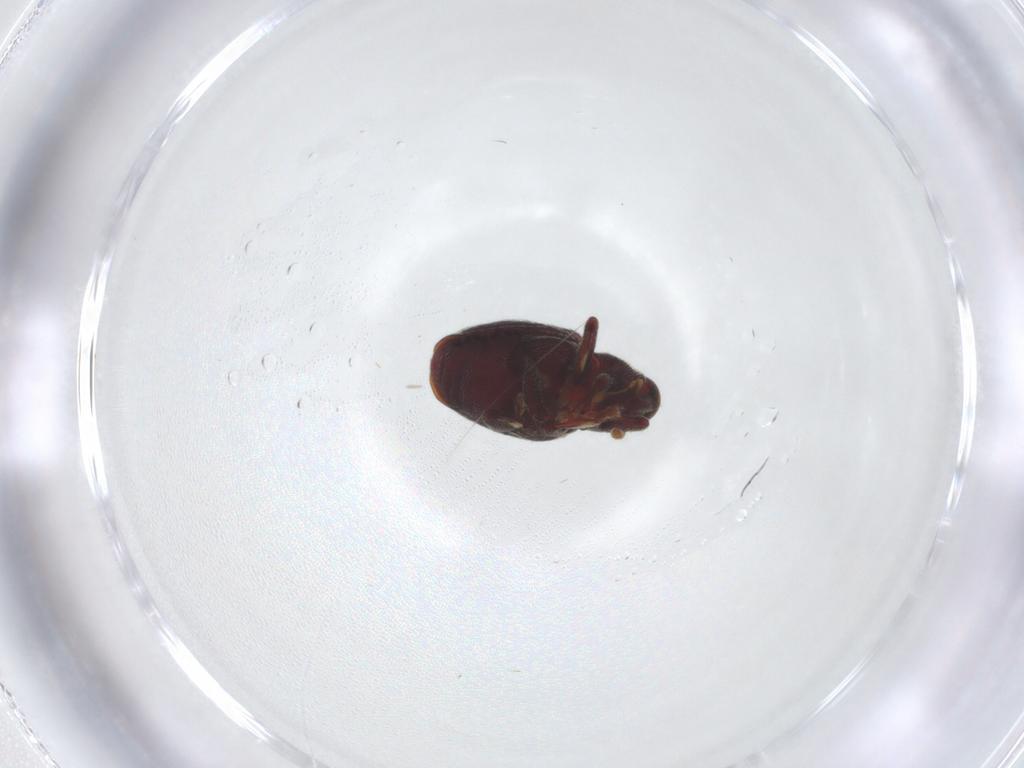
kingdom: Animalia
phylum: Arthropoda
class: Insecta
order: Coleoptera
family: Curculionidae
